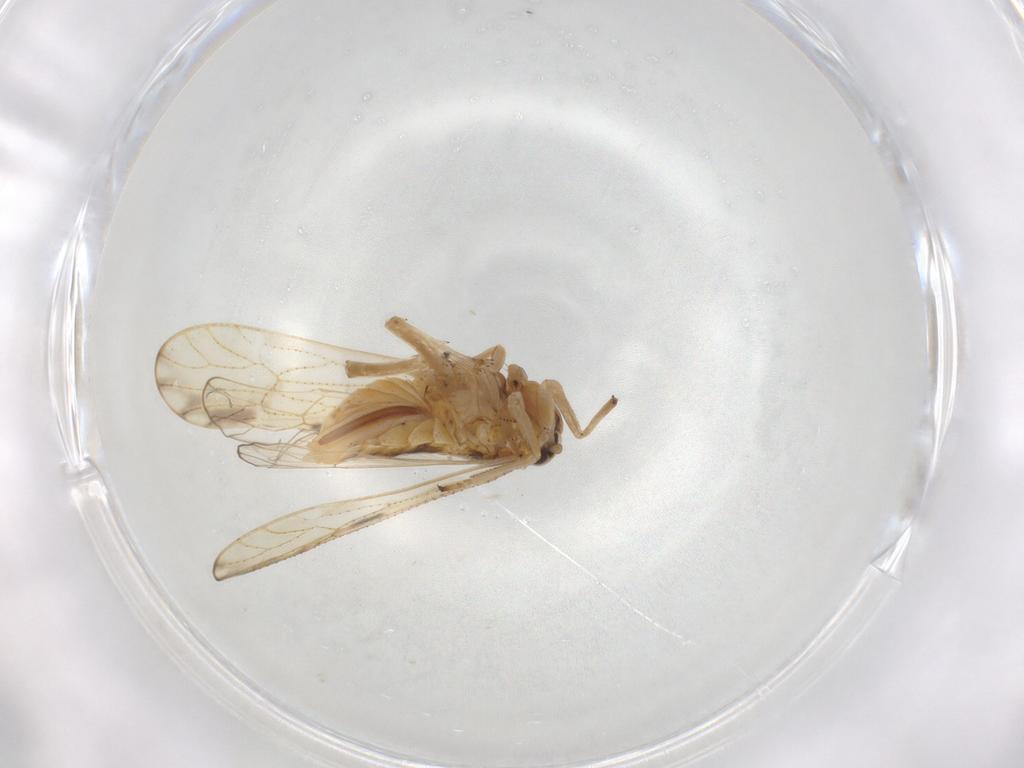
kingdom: Animalia
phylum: Arthropoda
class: Insecta
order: Hemiptera
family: Delphacidae
